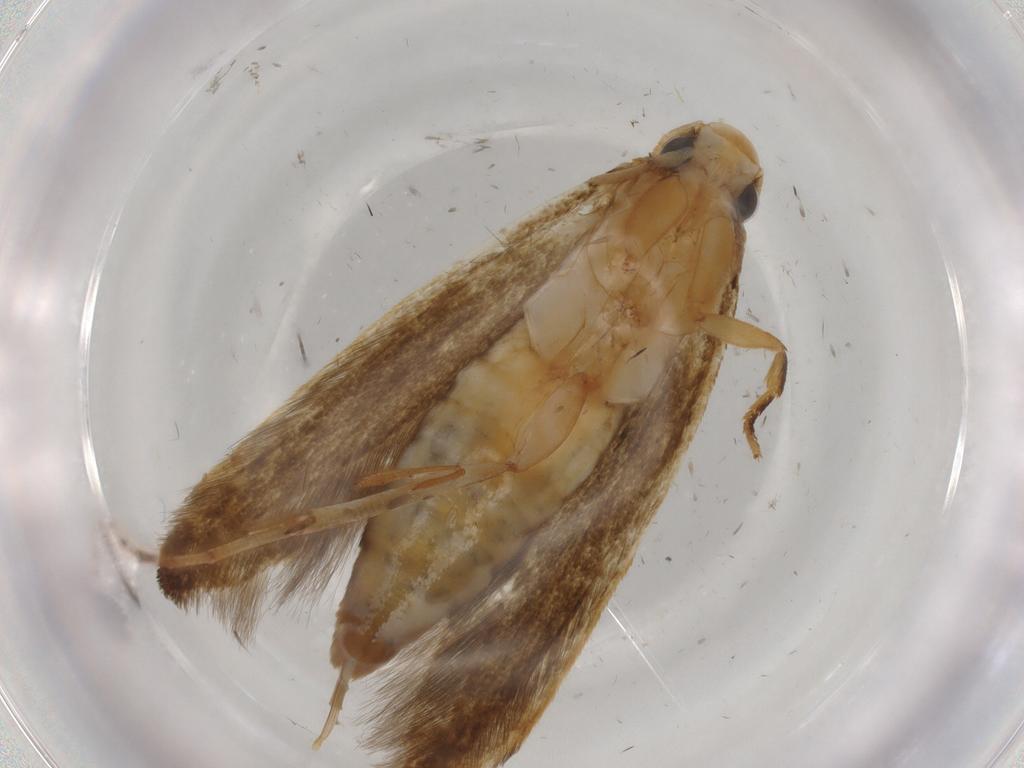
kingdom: Animalia
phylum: Arthropoda
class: Insecta
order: Lepidoptera
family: Tineidae
